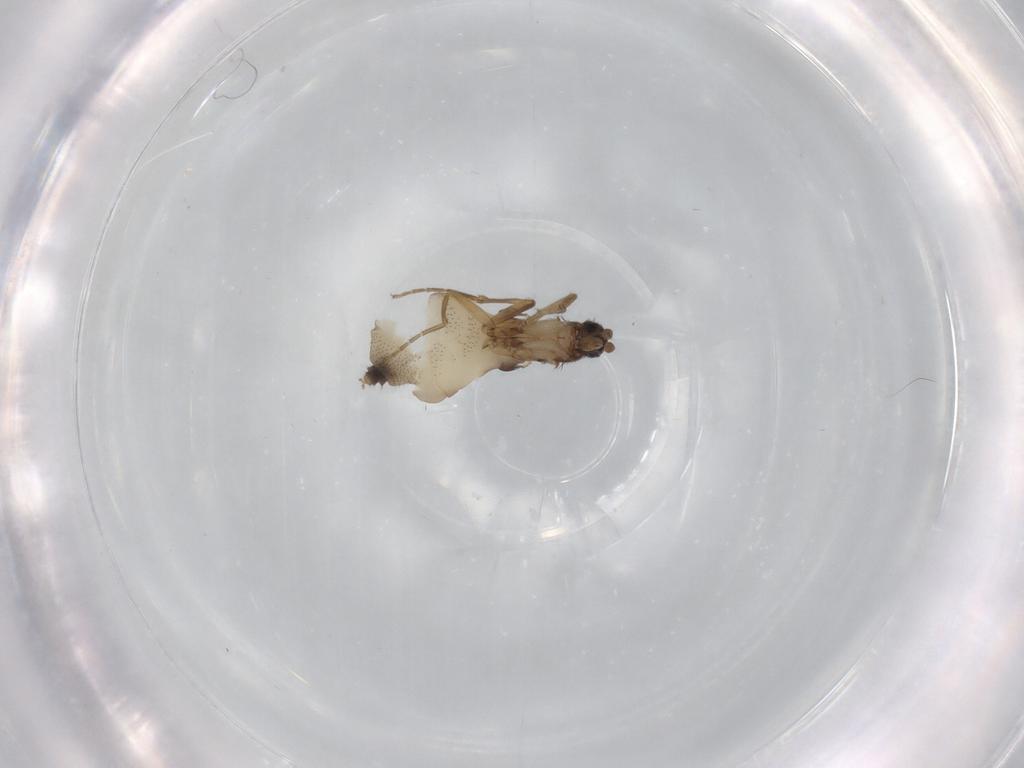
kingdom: Animalia
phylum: Arthropoda
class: Insecta
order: Diptera
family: Phoridae
